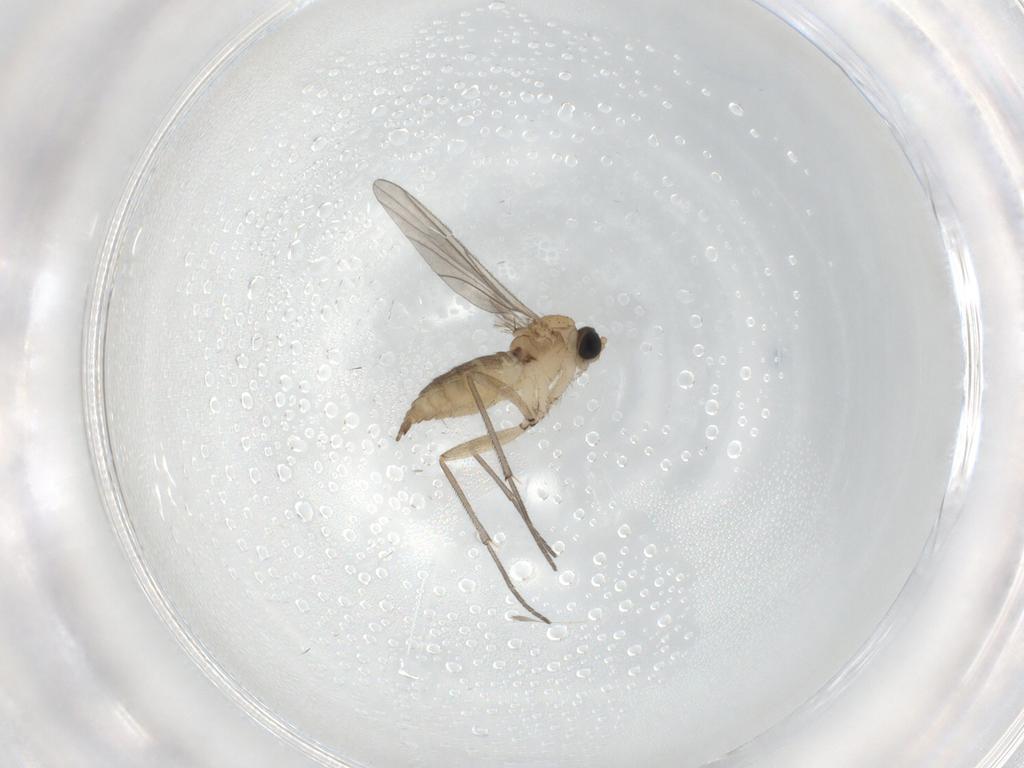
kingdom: Animalia
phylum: Arthropoda
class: Insecta
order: Diptera
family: Sciaridae
